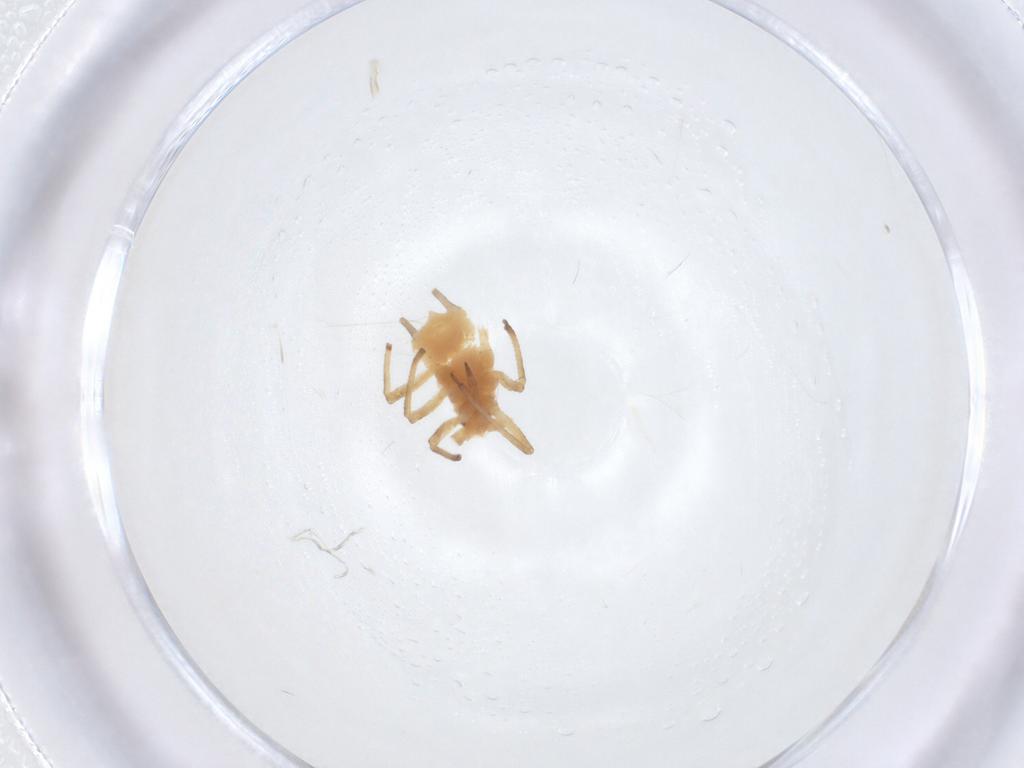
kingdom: Animalia
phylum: Arthropoda
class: Insecta
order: Hemiptera
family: Aphididae
